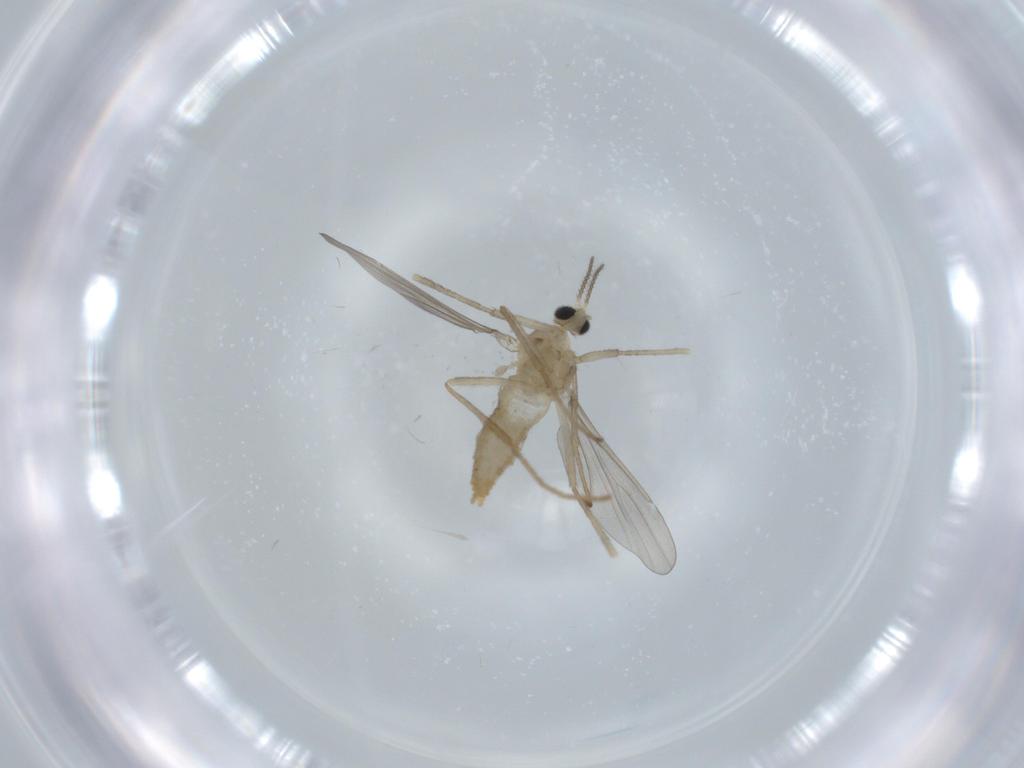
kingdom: Animalia
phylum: Arthropoda
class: Insecta
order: Diptera
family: Cecidomyiidae
